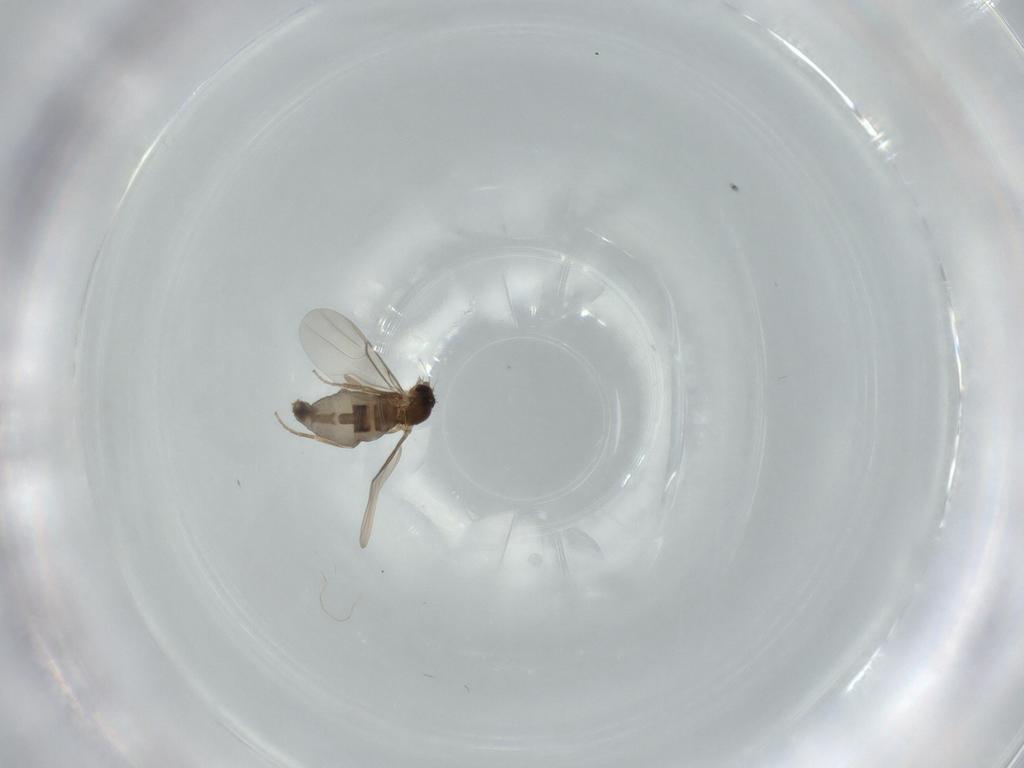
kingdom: Animalia
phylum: Arthropoda
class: Insecta
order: Diptera
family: Phoridae
